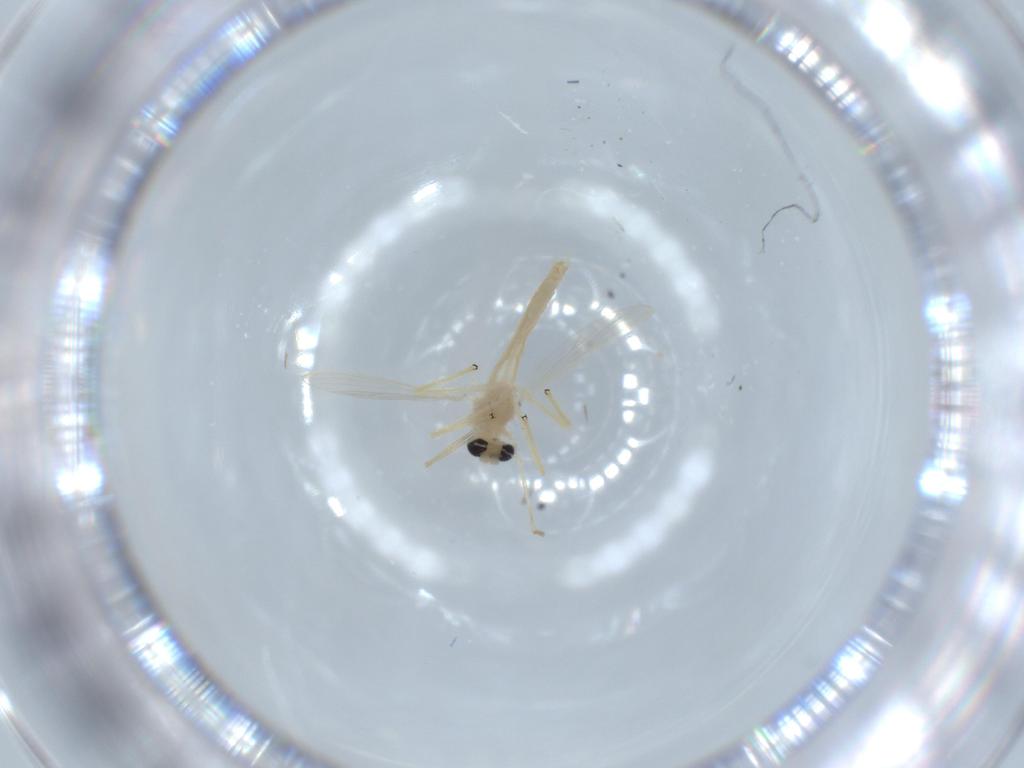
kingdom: Animalia
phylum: Arthropoda
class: Insecta
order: Diptera
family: Chironomidae
